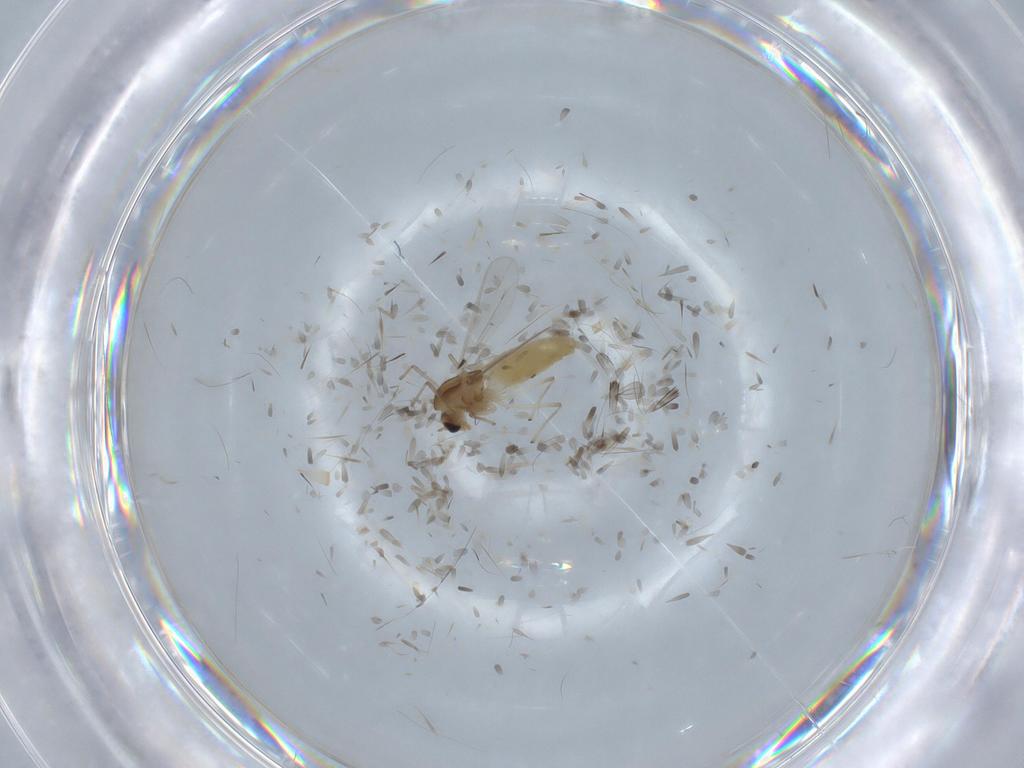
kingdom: Animalia
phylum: Arthropoda
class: Insecta
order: Diptera
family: Chironomidae
